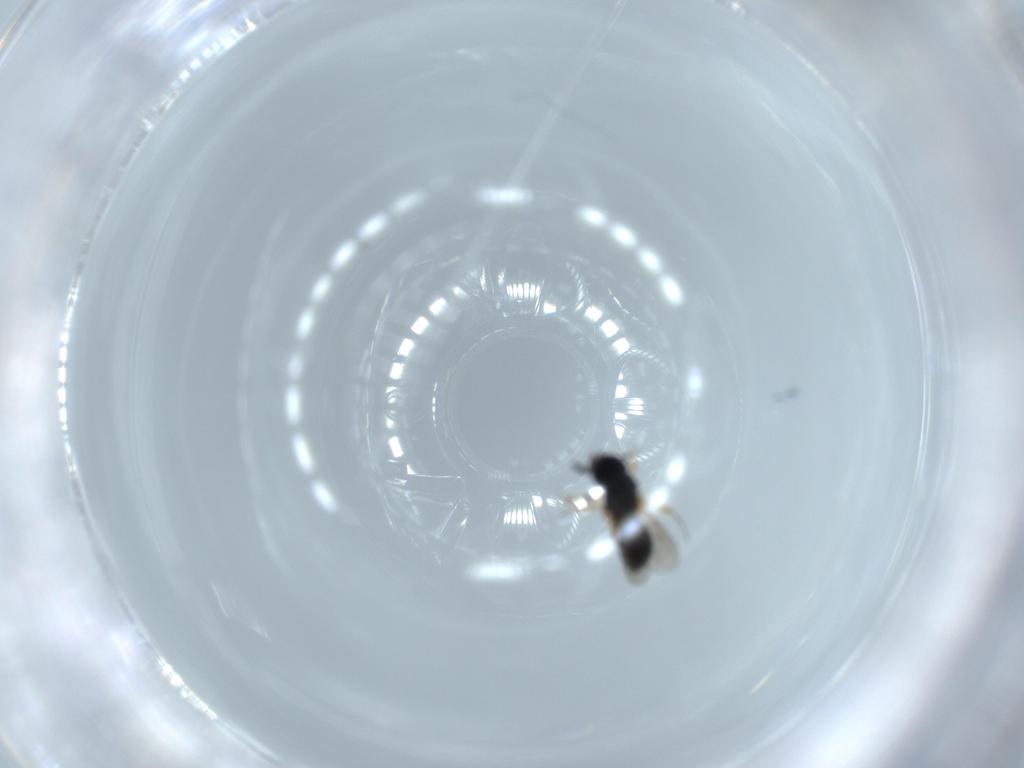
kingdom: Animalia
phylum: Arthropoda
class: Insecta
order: Hymenoptera
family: Scelionidae
